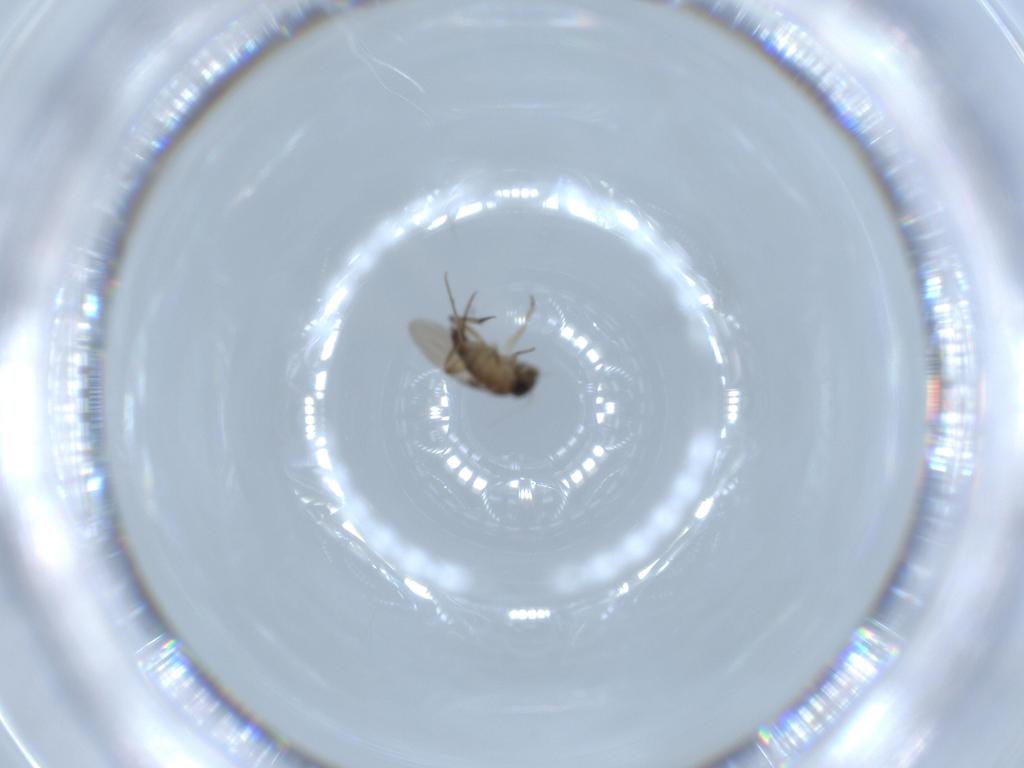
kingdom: Animalia
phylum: Arthropoda
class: Insecta
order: Diptera
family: Phoridae
